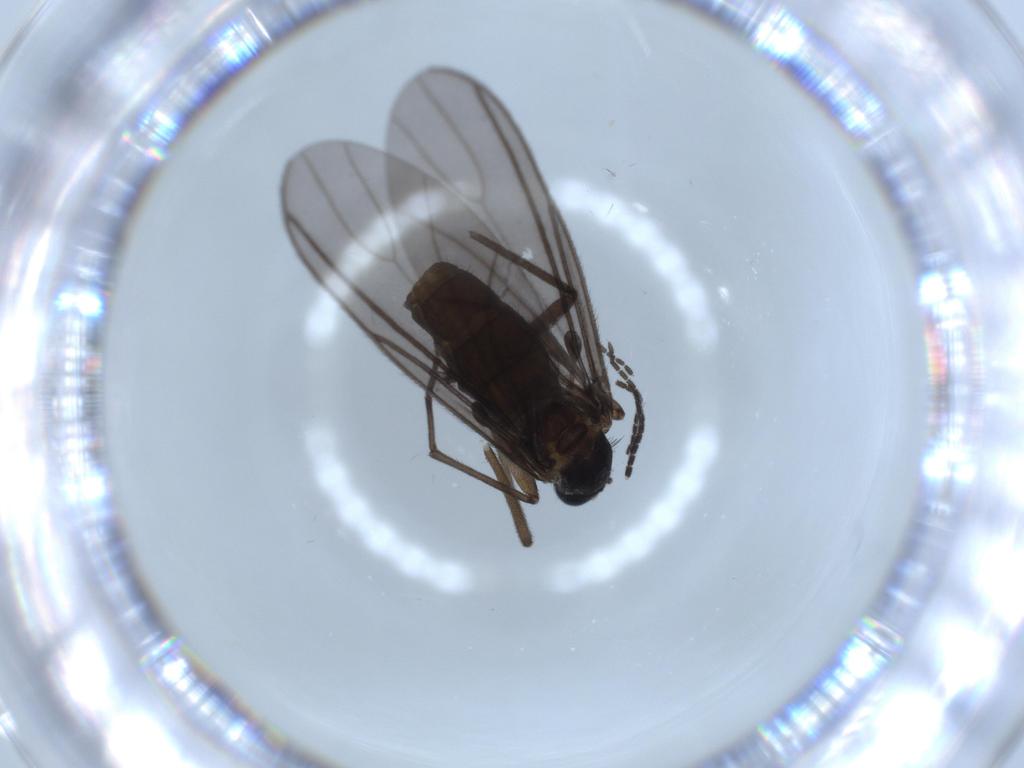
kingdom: Animalia
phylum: Arthropoda
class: Insecta
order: Diptera
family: Sciaridae
